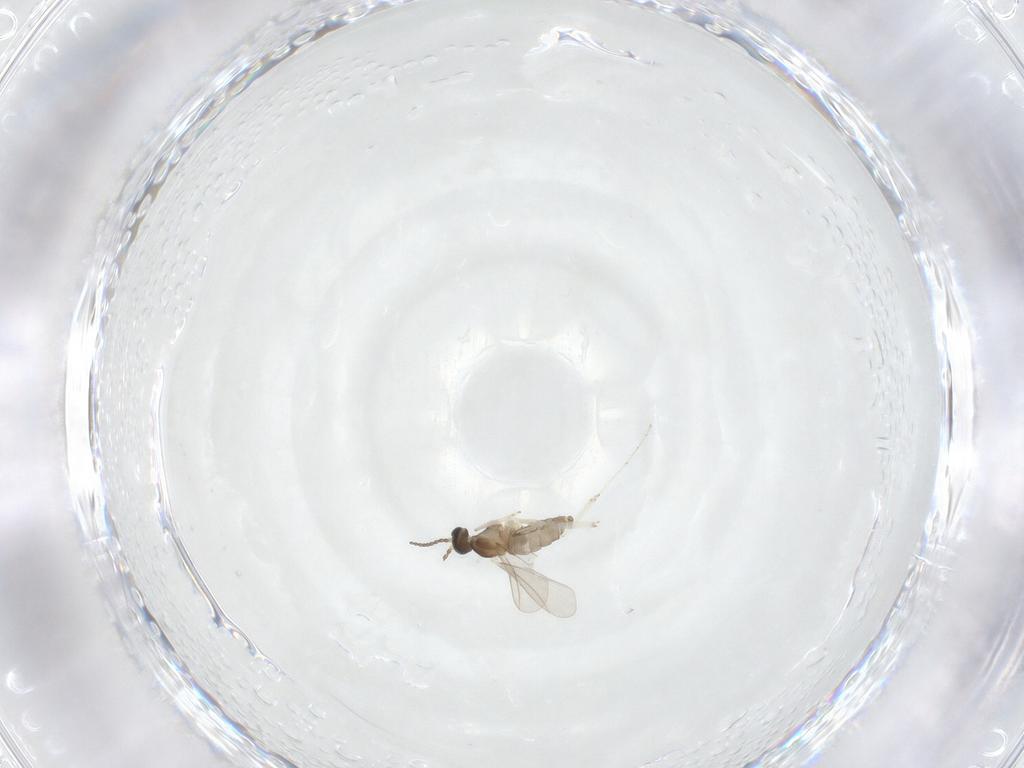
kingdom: Animalia
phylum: Arthropoda
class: Insecta
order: Diptera
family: Cecidomyiidae
